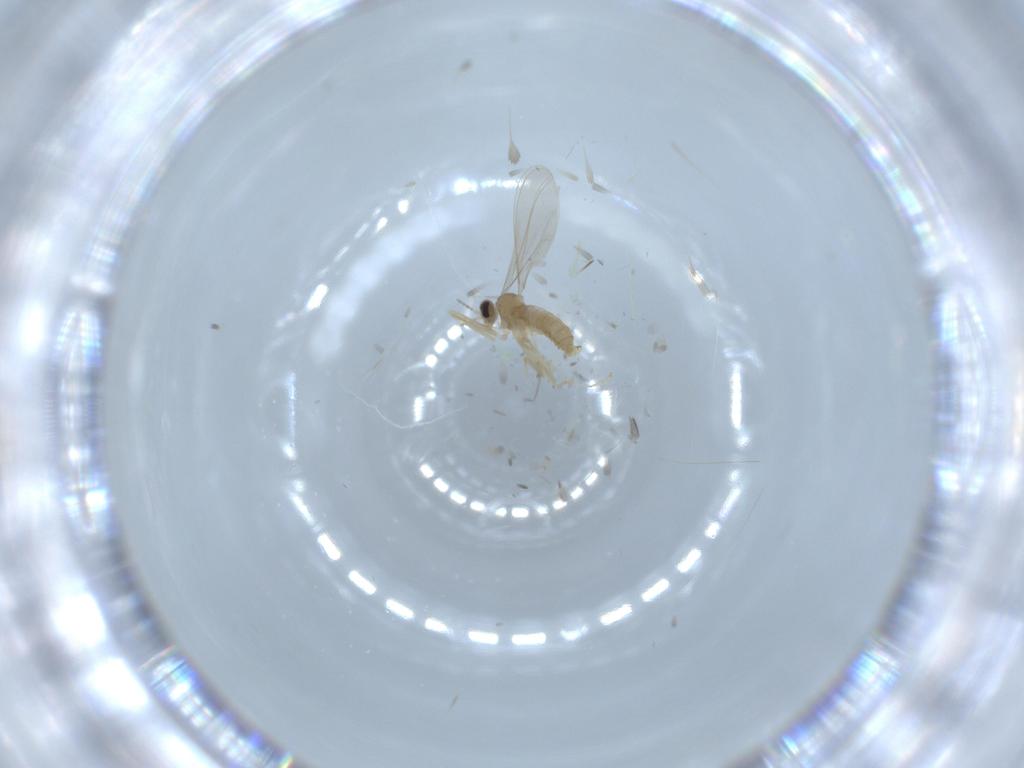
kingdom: Animalia
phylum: Arthropoda
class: Insecta
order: Diptera
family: Cecidomyiidae
